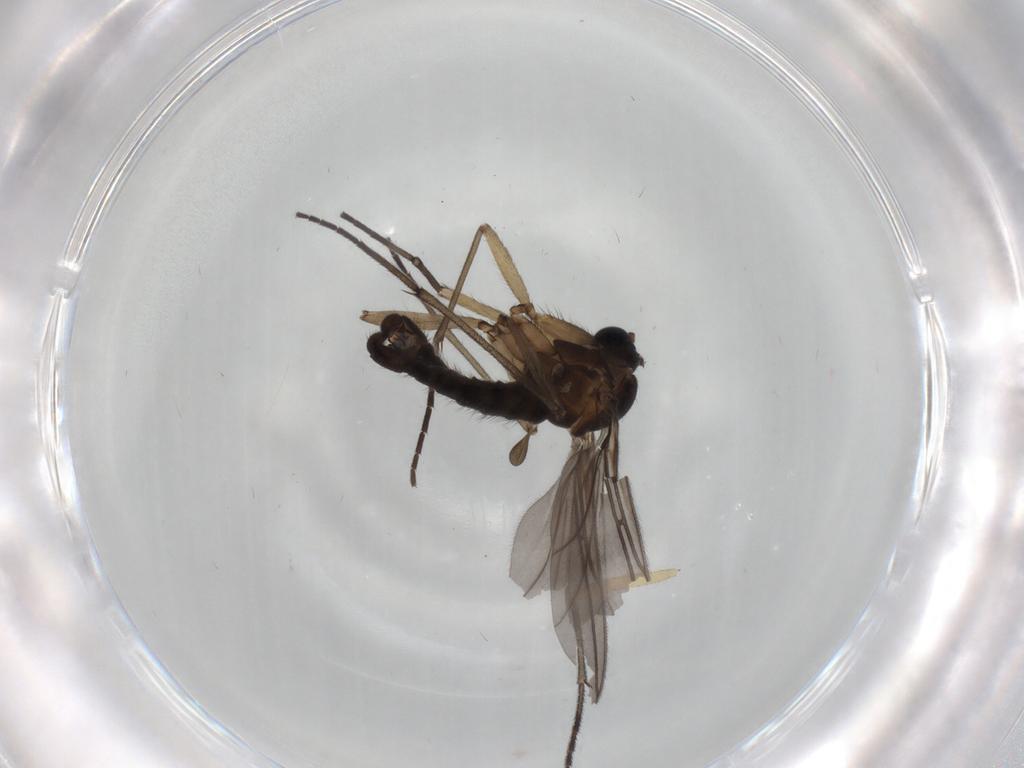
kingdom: Animalia
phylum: Arthropoda
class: Insecta
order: Diptera
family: Sciaridae
